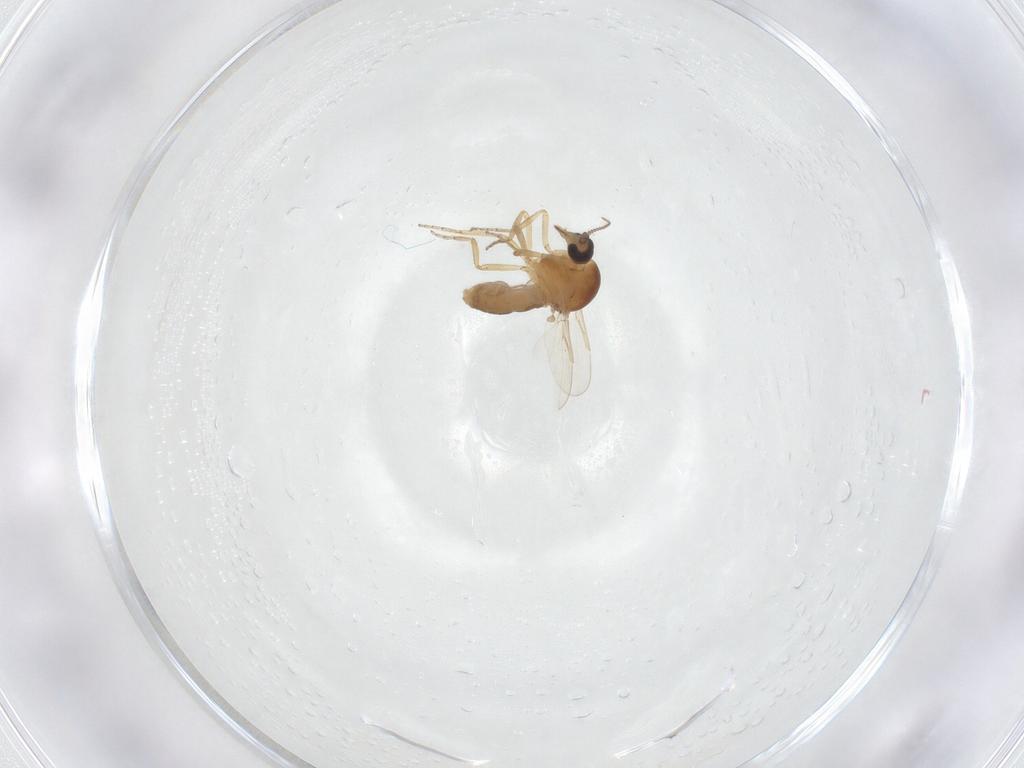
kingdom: Animalia
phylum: Arthropoda
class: Insecta
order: Diptera
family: Ceratopogonidae
